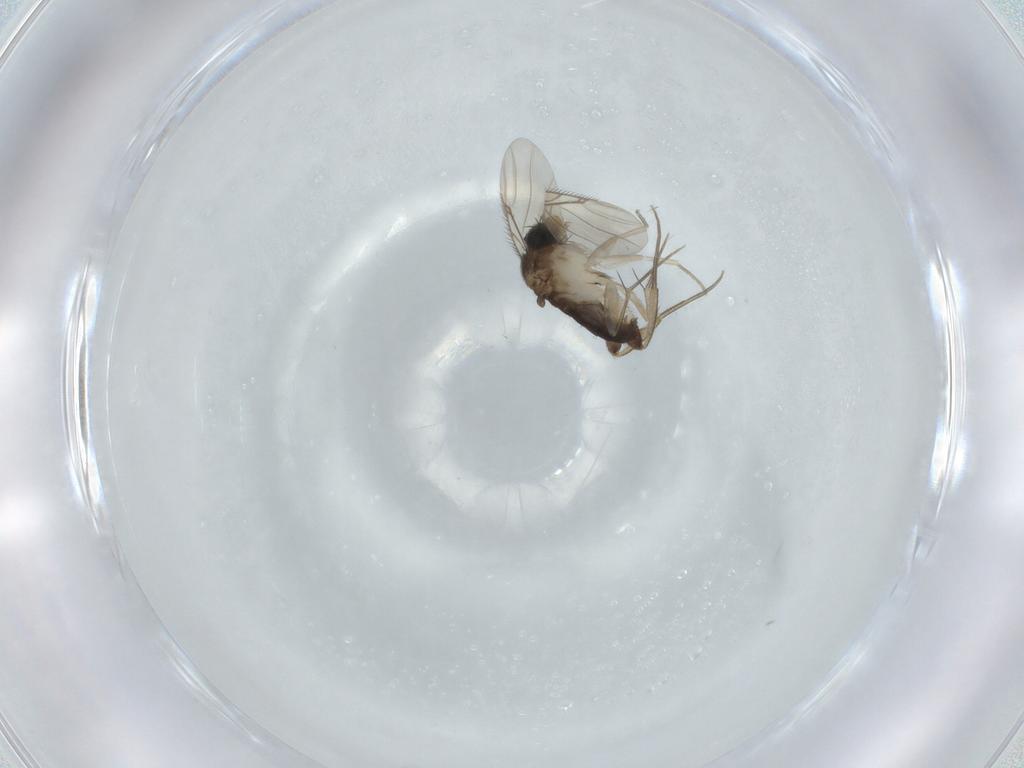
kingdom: Animalia
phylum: Arthropoda
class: Insecta
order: Diptera
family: Phoridae
